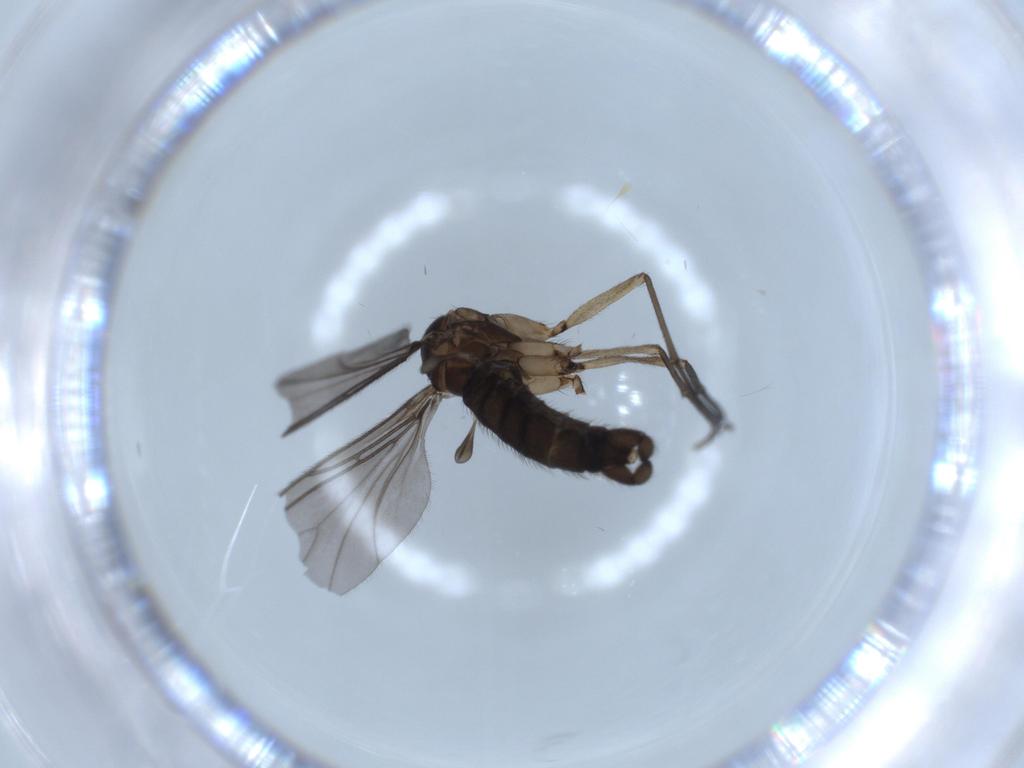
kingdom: Animalia
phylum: Arthropoda
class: Insecta
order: Diptera
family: Sciaridae
